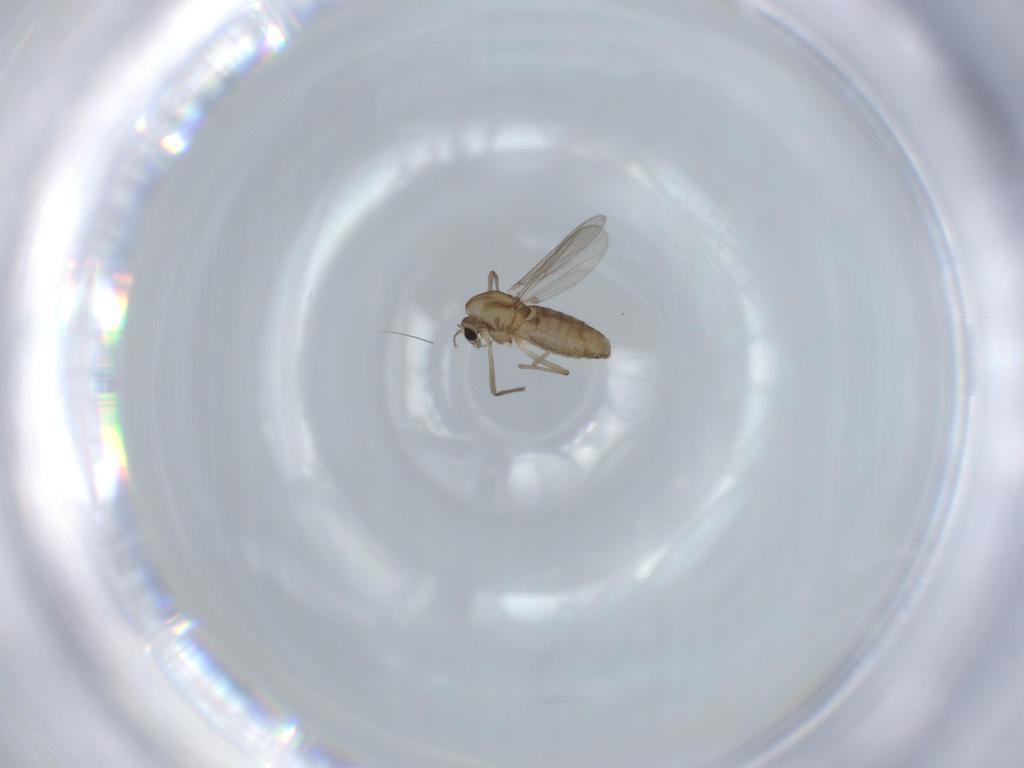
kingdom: Animalia
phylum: Arthropoda
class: Insecta
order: Diptera
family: Chironomidae
